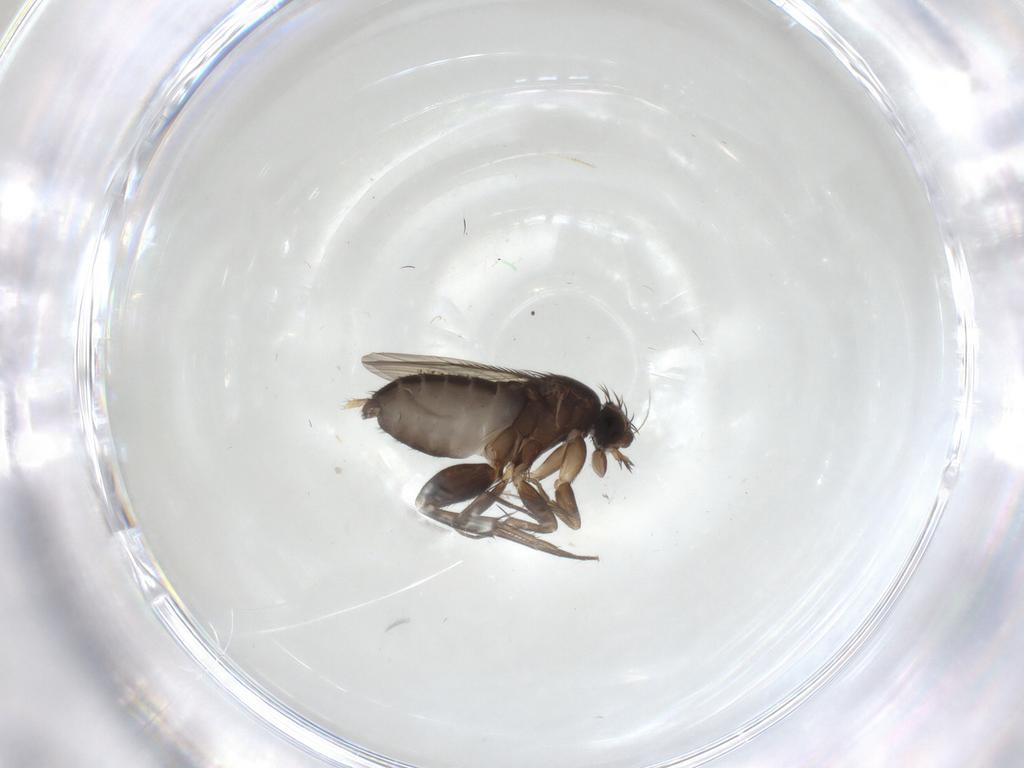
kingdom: Animalia
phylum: Arthropoda
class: Insecta
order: Diptera
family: Phoridae
